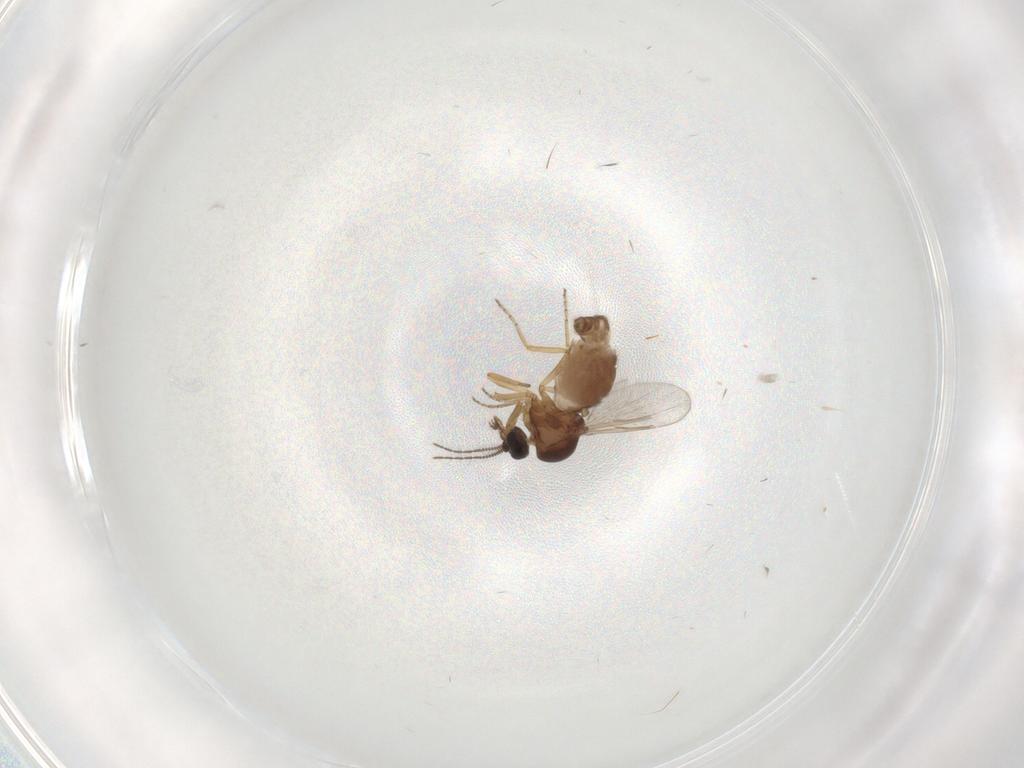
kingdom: Animalia
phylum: Arthropoda
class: Insecta
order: Diptera
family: Ceratopogonidae
